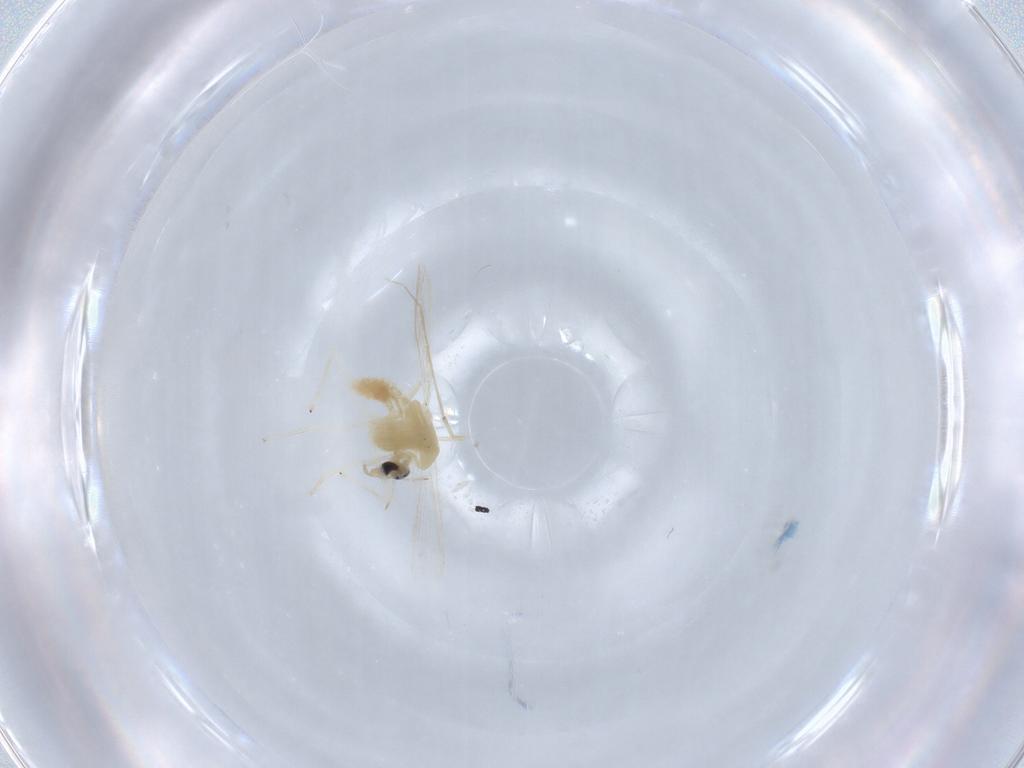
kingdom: Animalia
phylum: Arthropoda
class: Insecta
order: Diptera
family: Chironomidae
